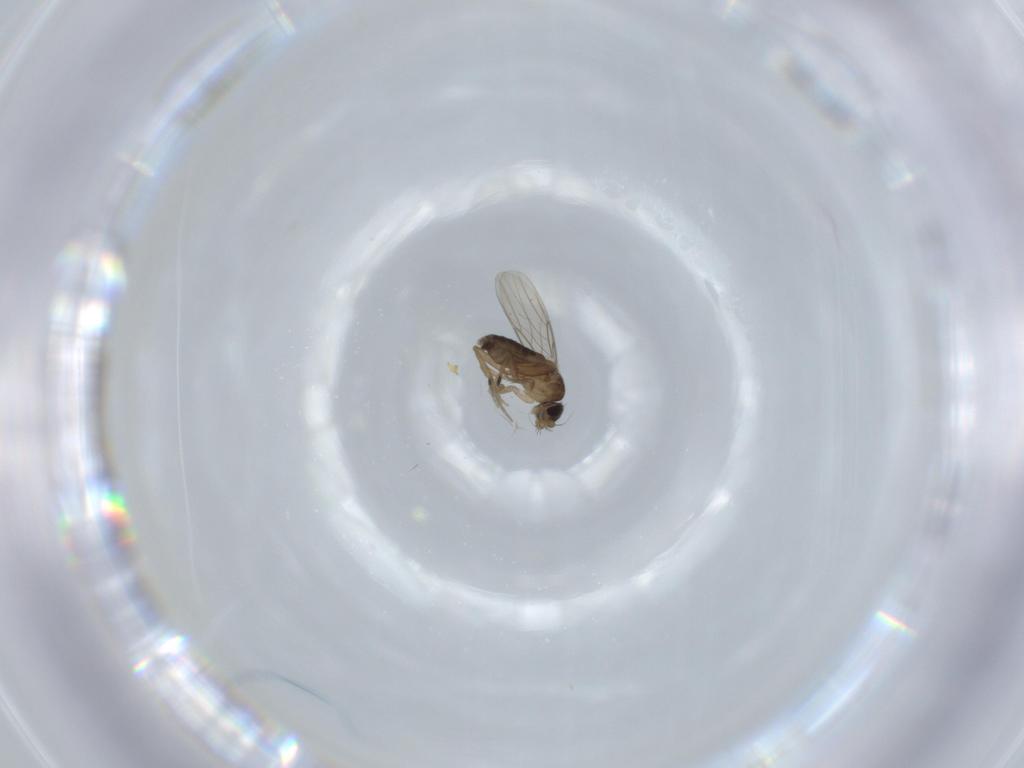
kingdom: Animalia
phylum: Arthropoda
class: Insecta
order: Diptera
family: Phoridae
